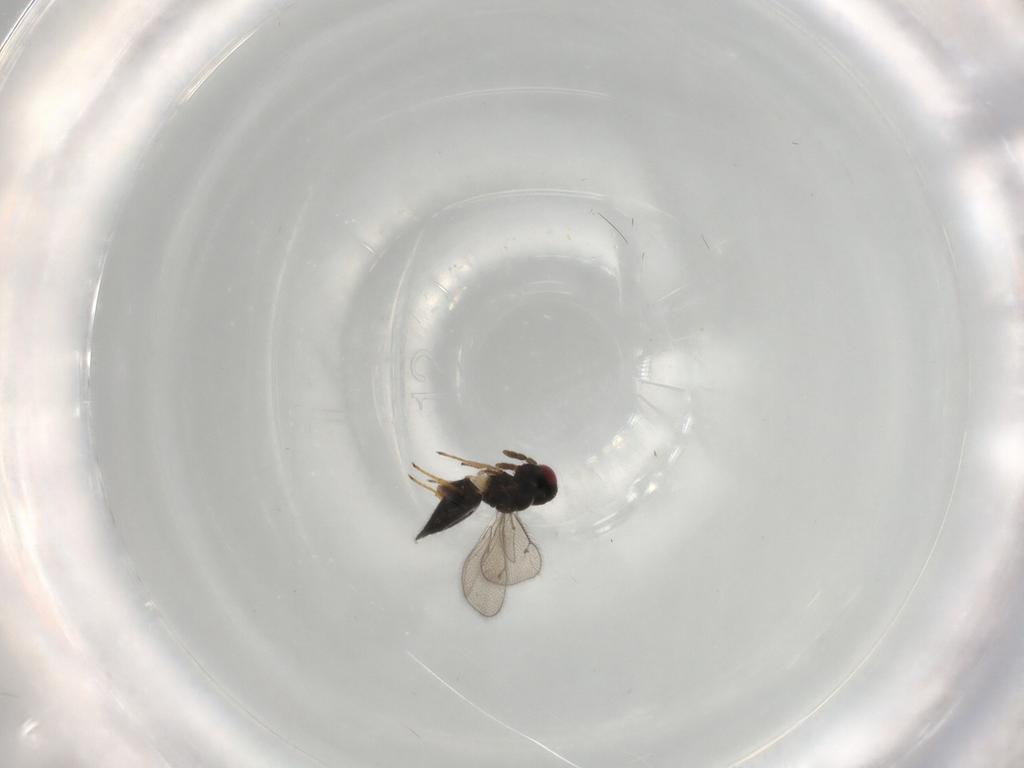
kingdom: Animalia
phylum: Arthropoda
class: Insecta
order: Hymenoptera
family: Eulophidae
